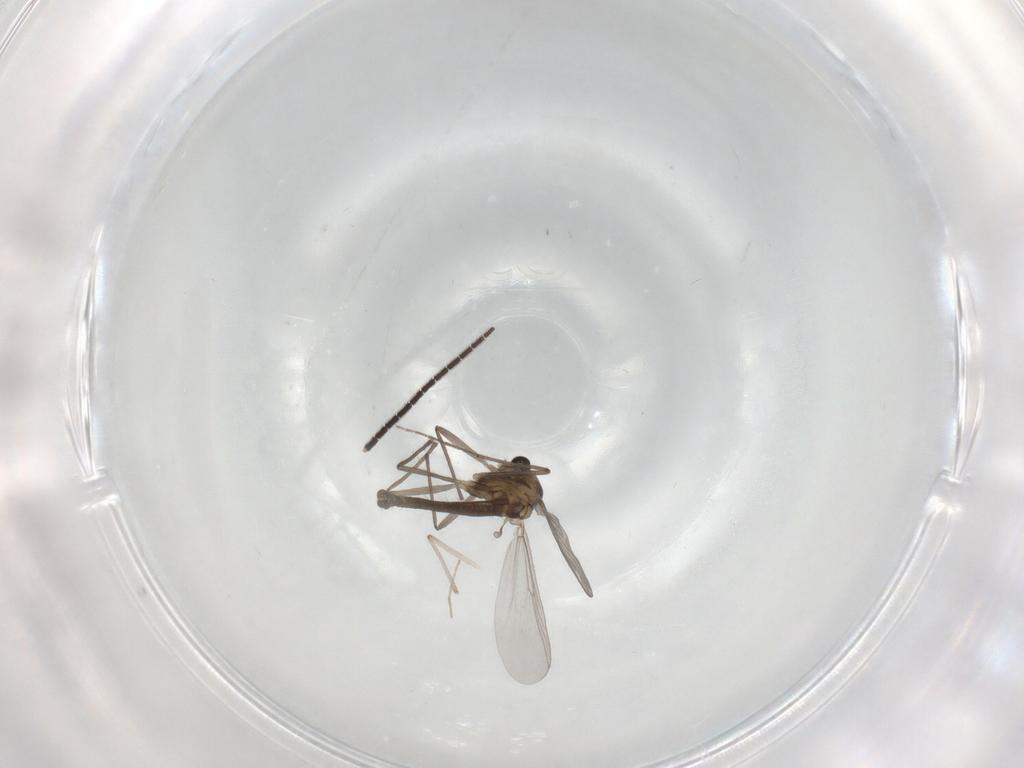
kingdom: Animalia
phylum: Arthropoda
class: Insecta
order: Diptera
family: Chironomidae
